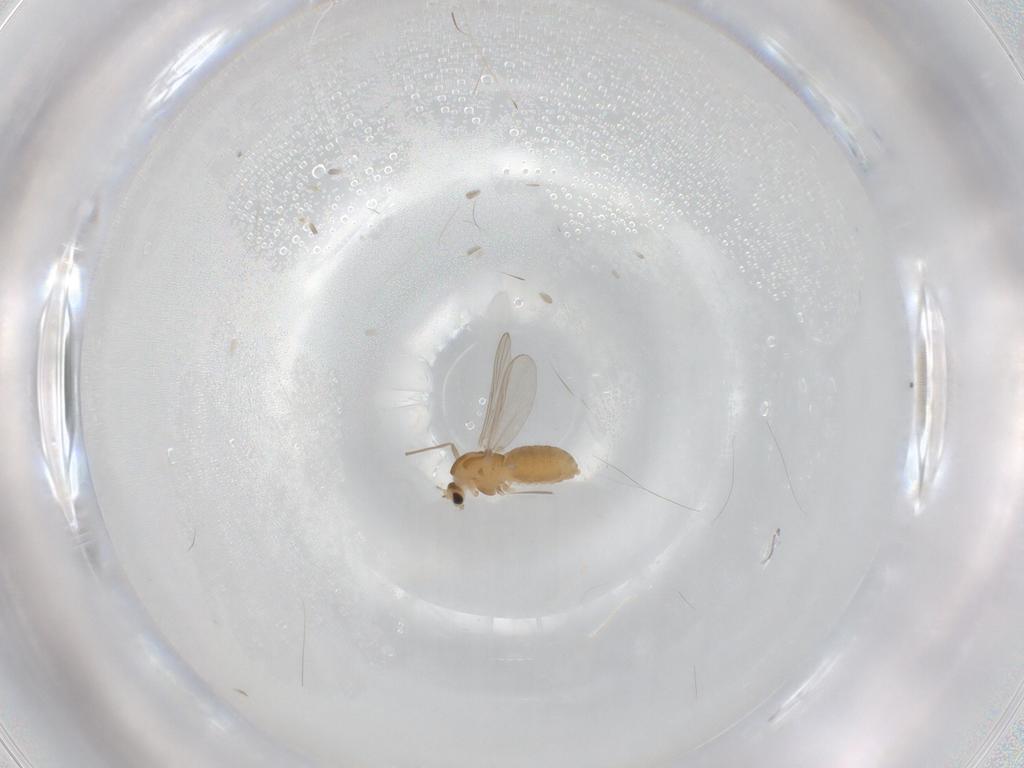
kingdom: Animalia
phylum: Arthropoda
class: Insecta
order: Diptera
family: Chironomidae
